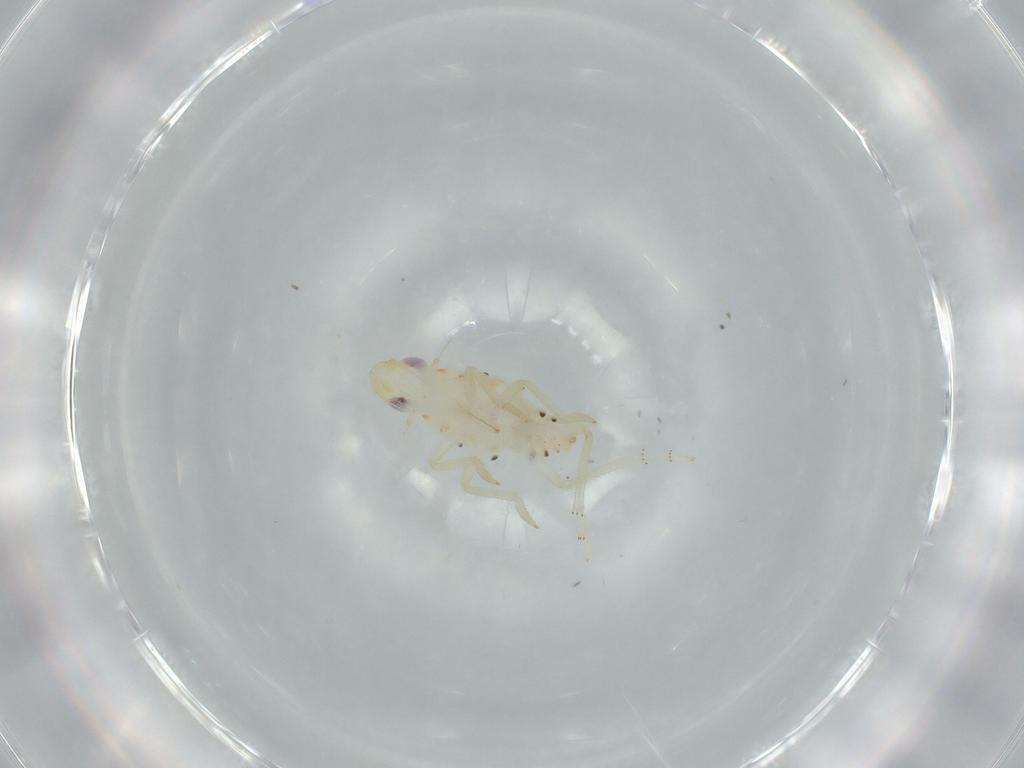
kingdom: Animalia
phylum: Arthropoda
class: Insecta
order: Hemiptera
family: Tropiduchidae
